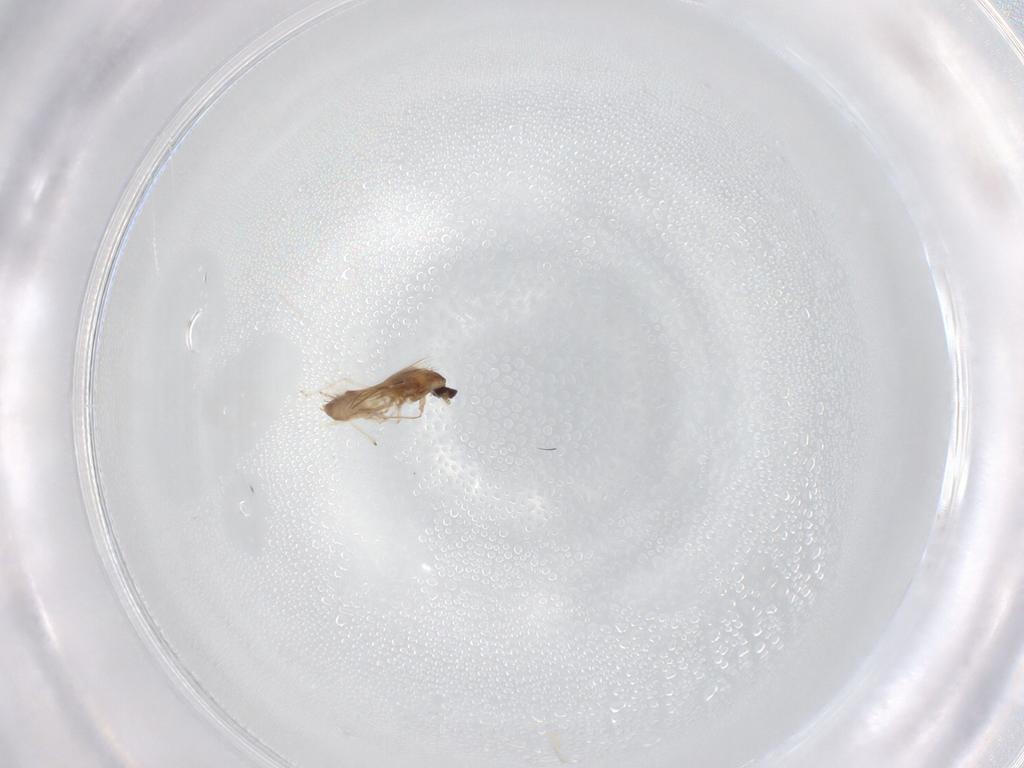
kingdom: Animalia
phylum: Arthropoda
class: Insecta
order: Diptera
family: Cecidomyiidae
